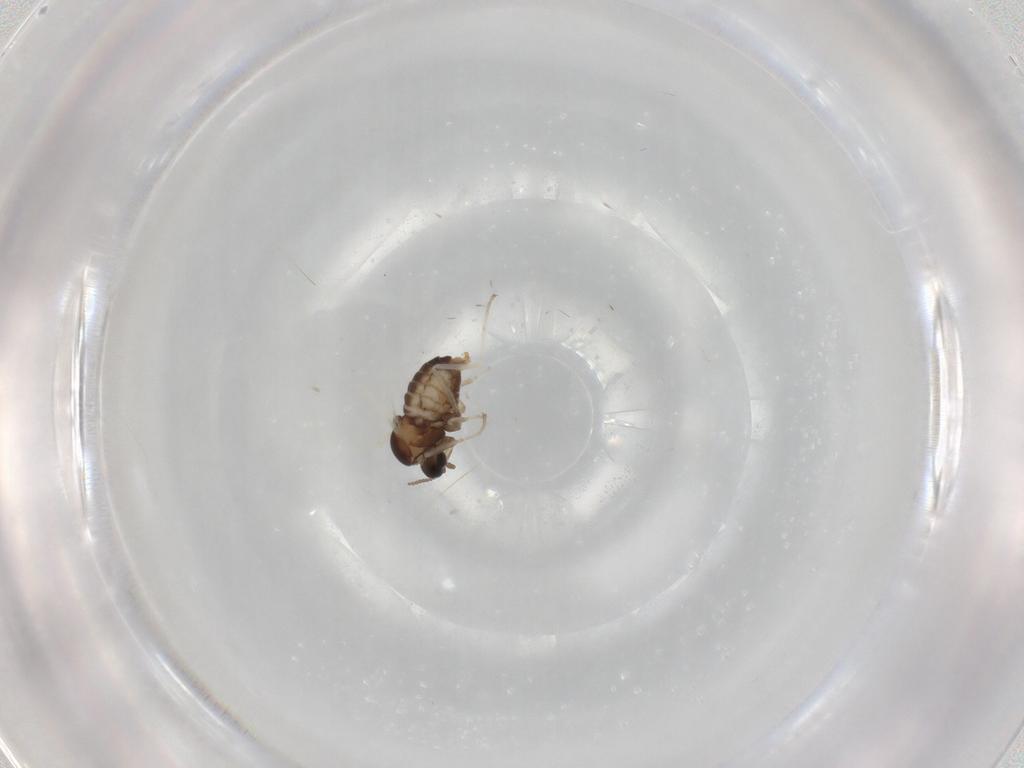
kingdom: Animalia
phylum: Arthropoda
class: Insecta
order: Diptera
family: Cecidomyiidae
